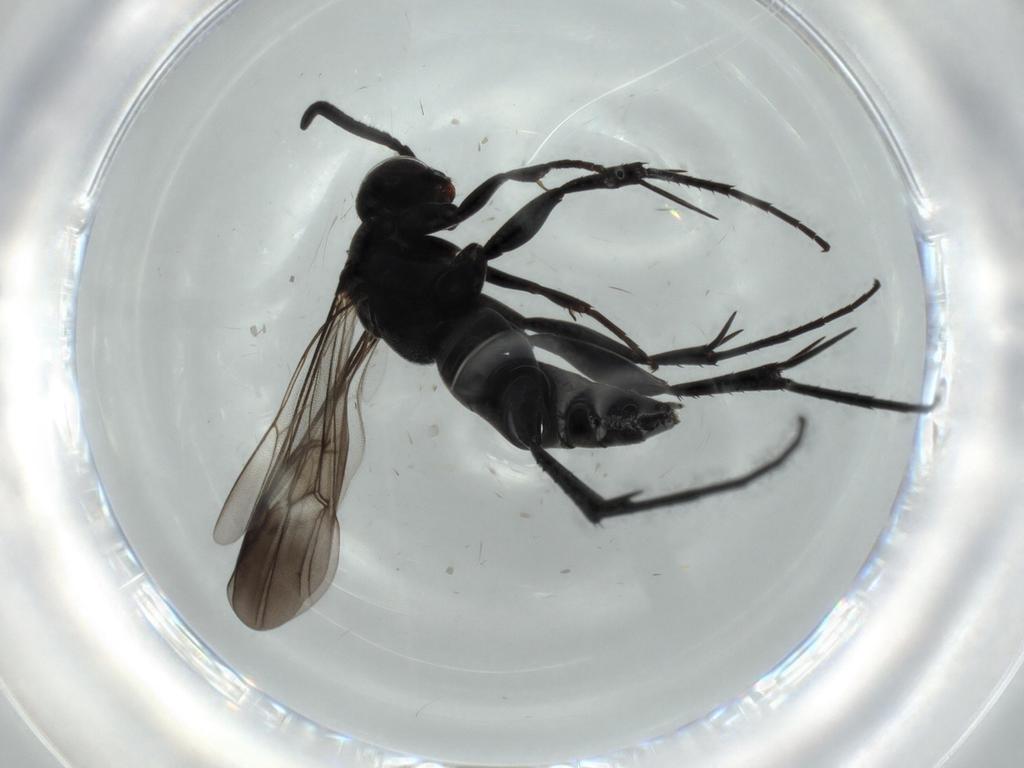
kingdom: Animalia
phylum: Arthropoda
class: Insecta
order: Hymenoptera
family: Pompilidae
